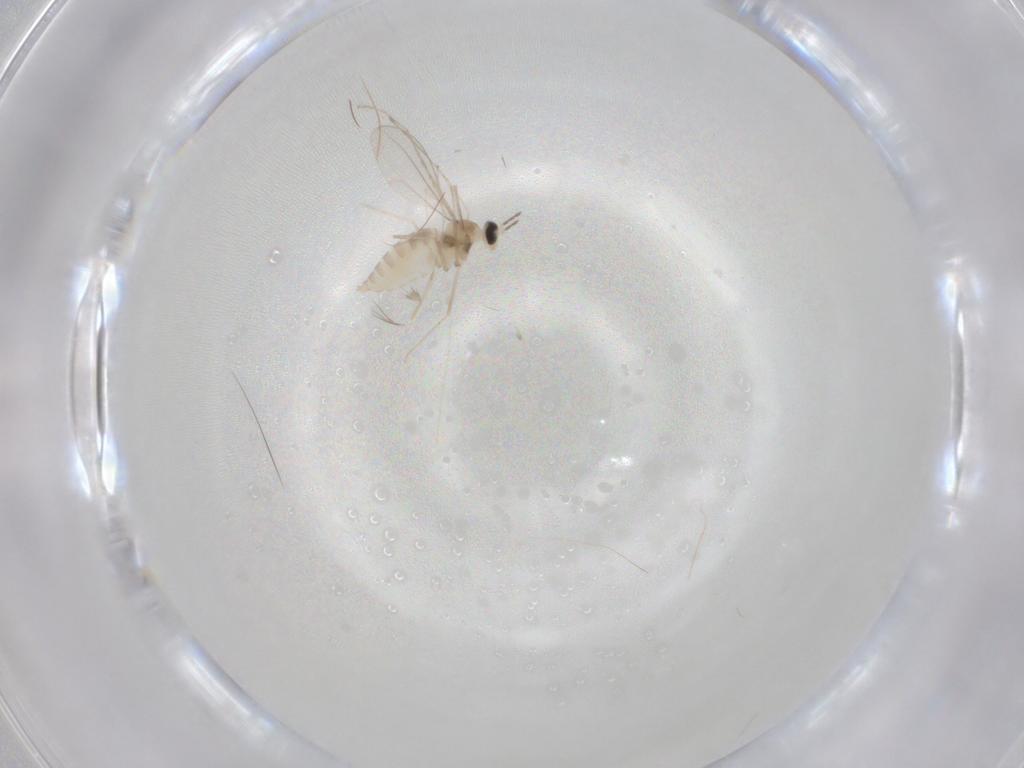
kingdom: Animalia
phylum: Arthropoda
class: Insecta
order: Diptera
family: Cecidomyiidae
